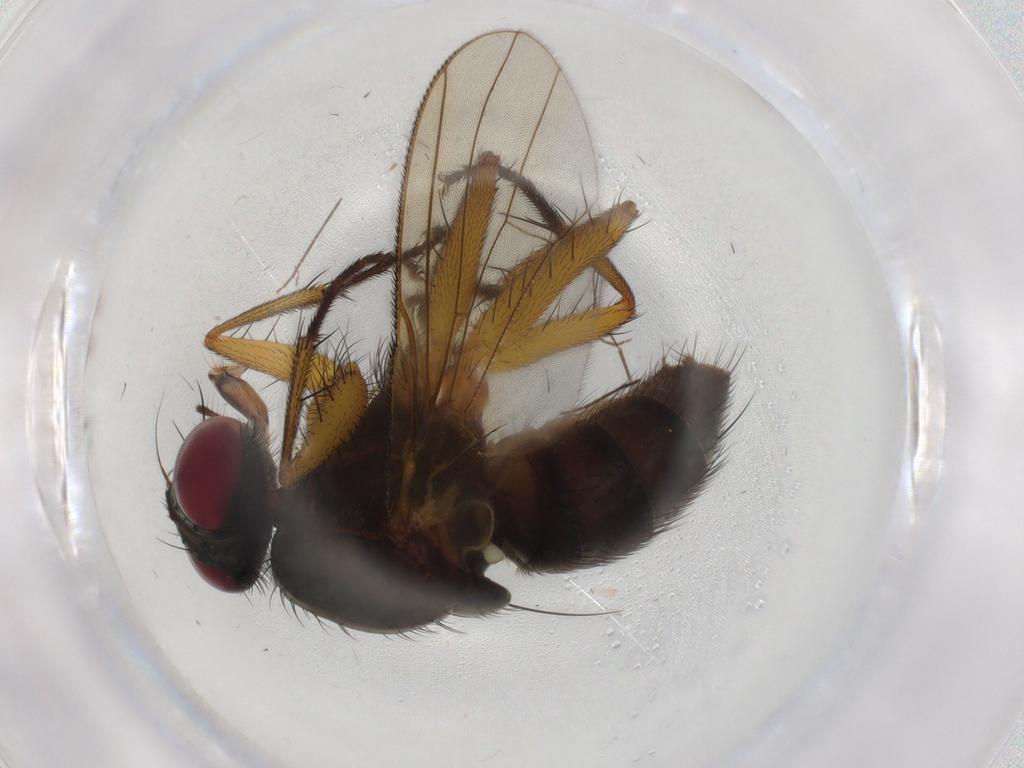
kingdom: Animalia
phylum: Arthropoda
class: Insecta
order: Diptera
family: Muscidae
